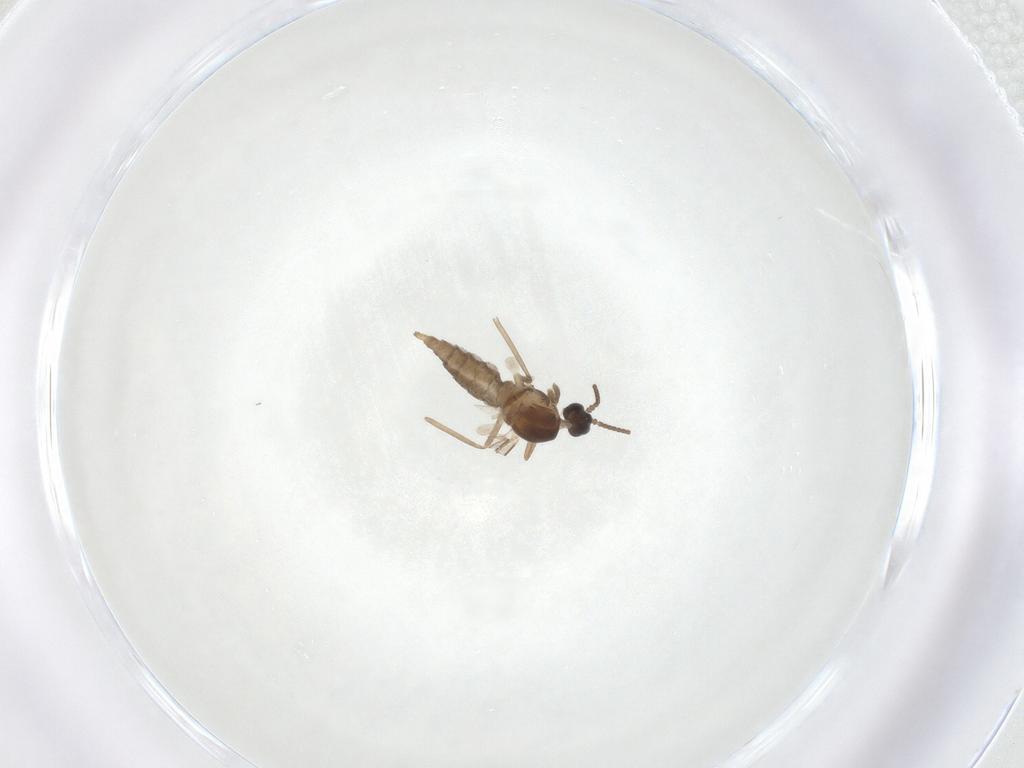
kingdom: Animalia
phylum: Arthropoda
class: Insecta
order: Diptera
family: Cecidomyiidae
